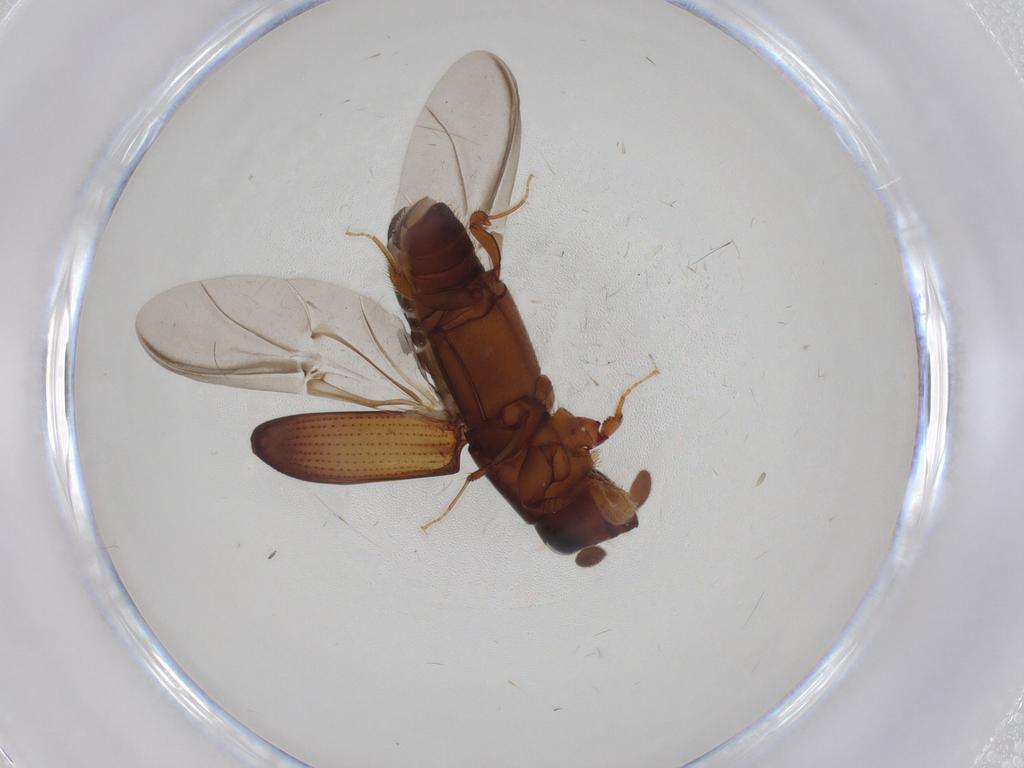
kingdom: Animalia
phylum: Arthropoda
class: Insecta
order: Coleoptera
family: Curculionidae
